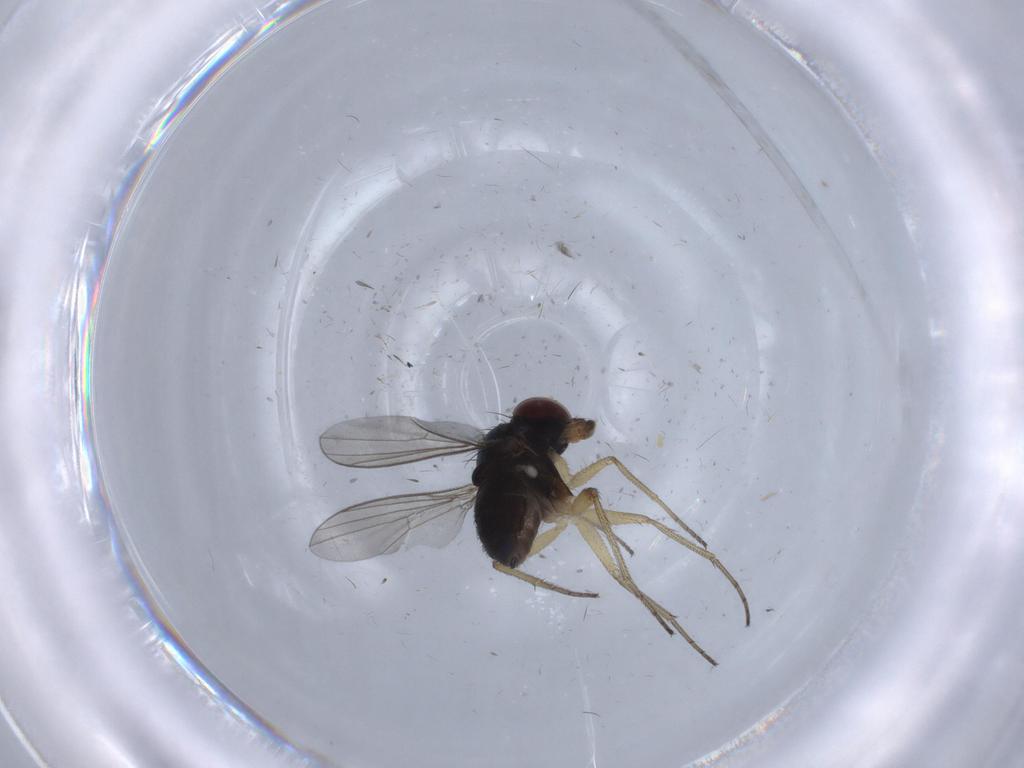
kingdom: Animalia
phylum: Arthropoda
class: Insecta
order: Diptera
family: Dolichopodidae
